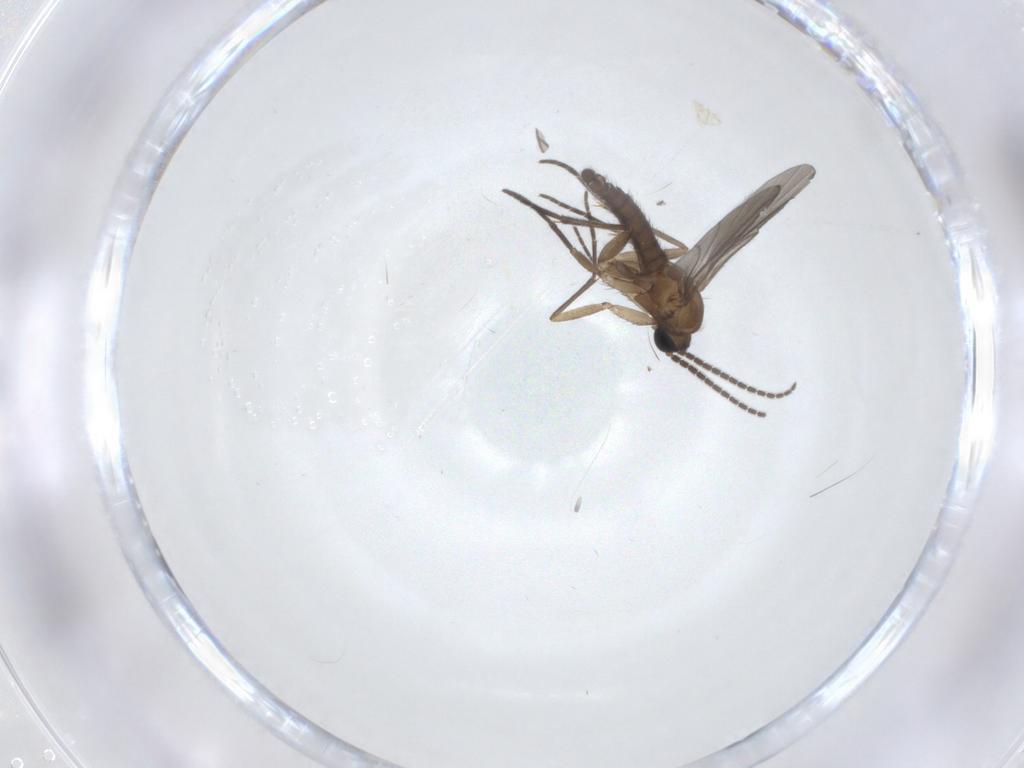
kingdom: Animalia
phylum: Arthropoda
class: Insecta
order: Diptera
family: Sciaridae
